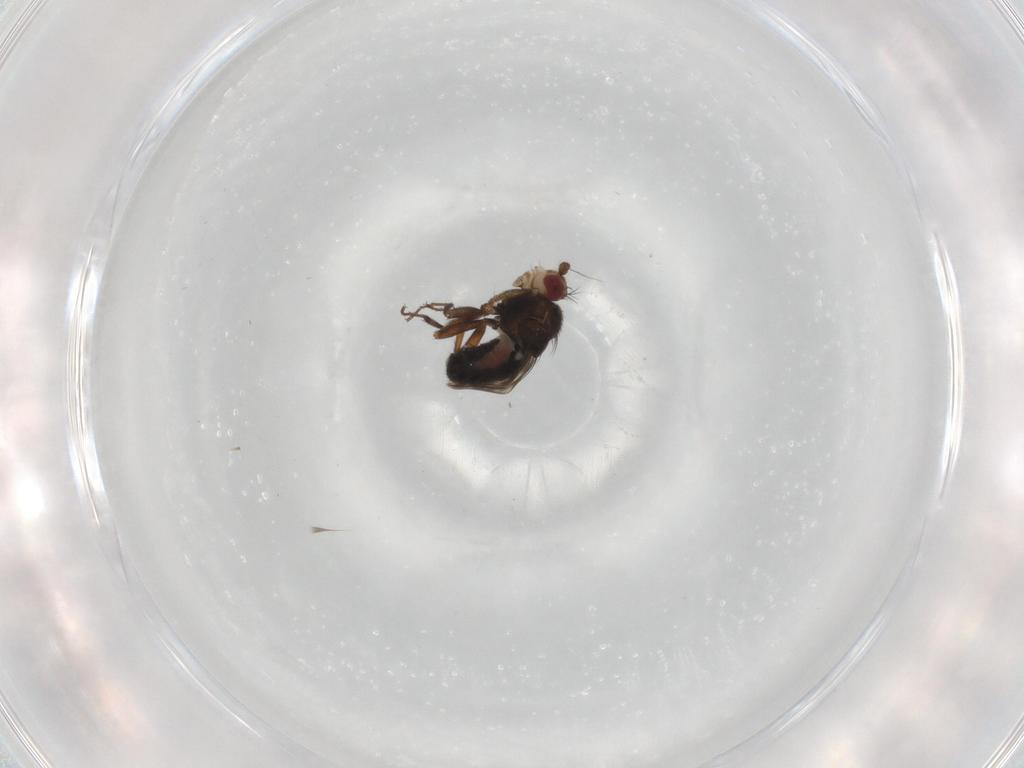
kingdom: Animalia
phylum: Arthropoda
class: Insecta
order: Diptera
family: Sphaeroceridae
